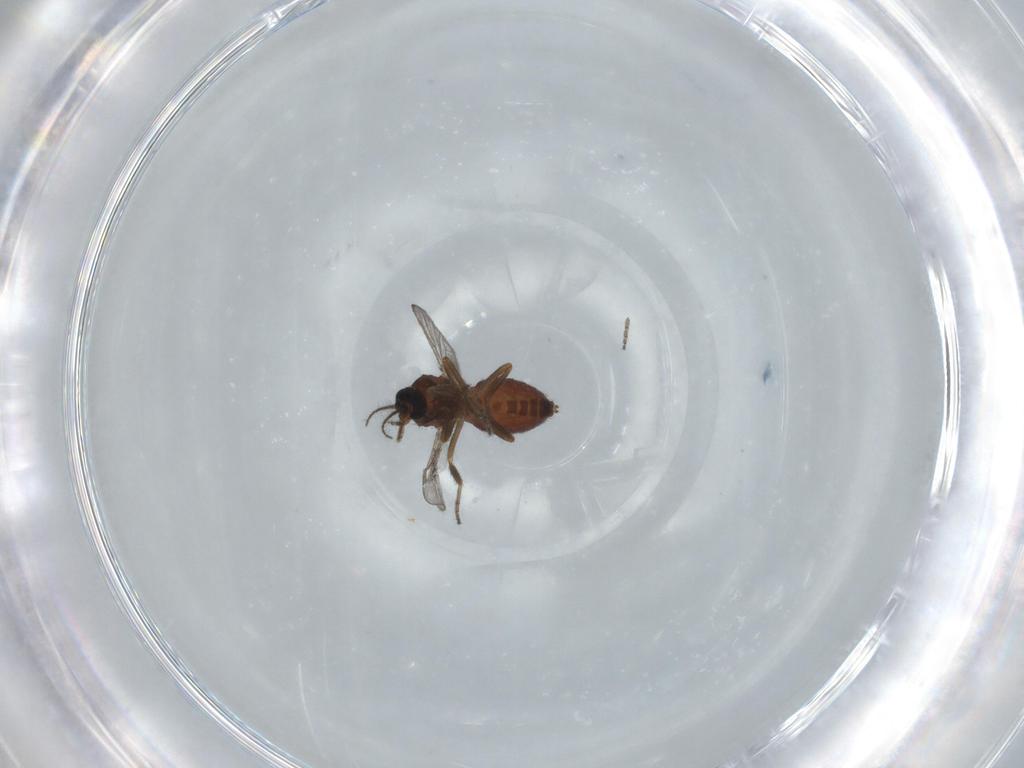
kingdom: Animalia
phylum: Arthropoda
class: Insecta
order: Diptera
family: Ceratopogonidae
